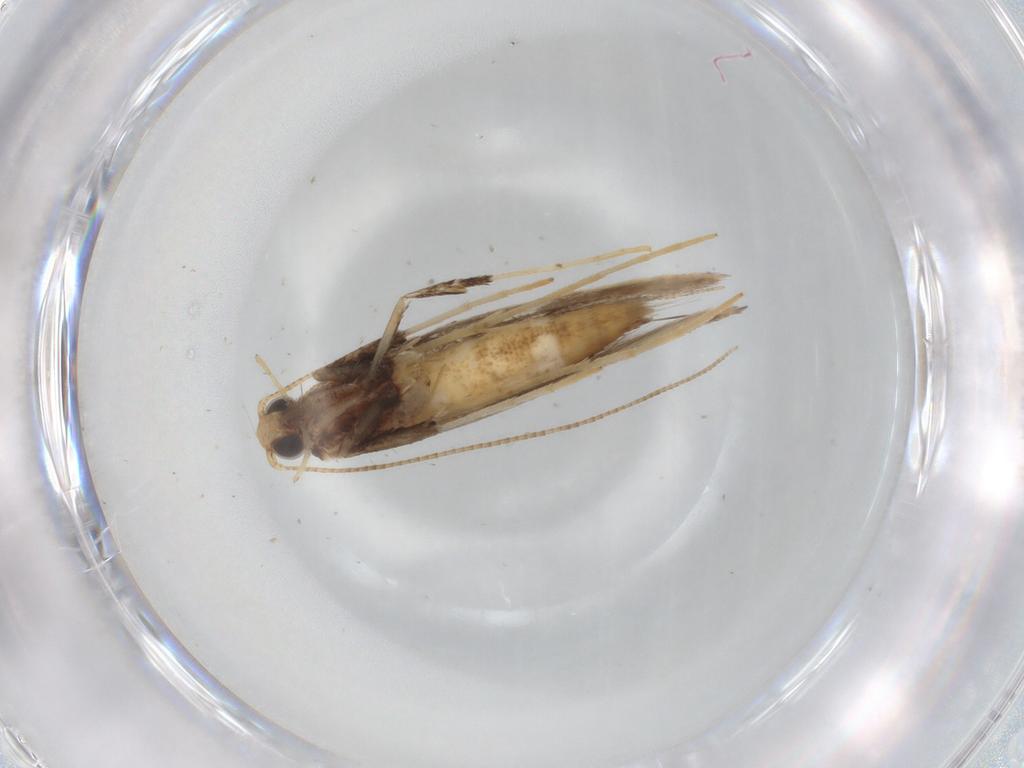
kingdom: Animalia
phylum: Arthropoda
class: Insecta
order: Lepidoptera
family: Gracillariidae
